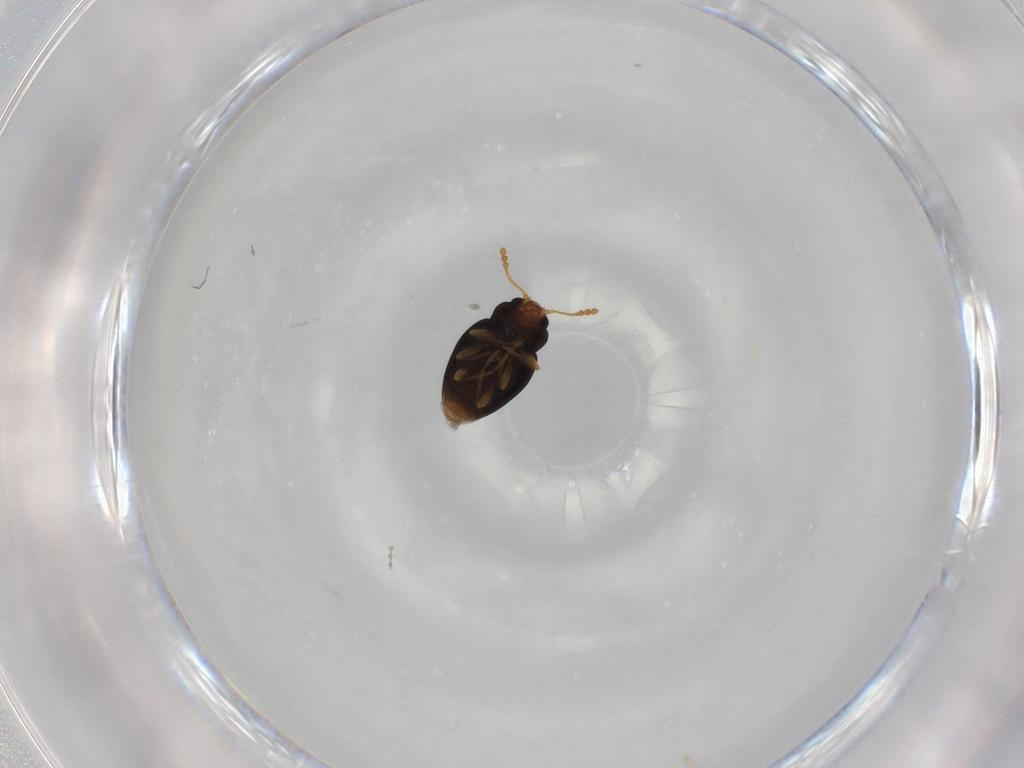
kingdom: Animalia
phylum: Arthropoda
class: Insecta
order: Coleoptera
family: Erotylidae
